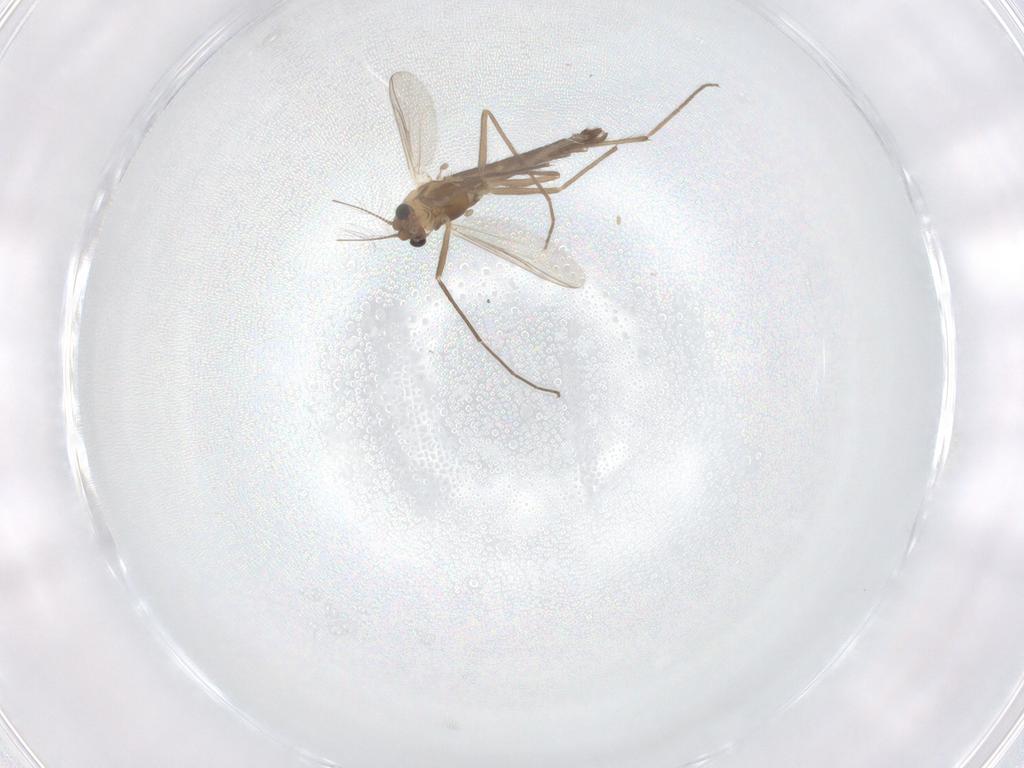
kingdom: Animalia
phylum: Arthropoda
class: Insecta
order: Diptera
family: Chironomidae
